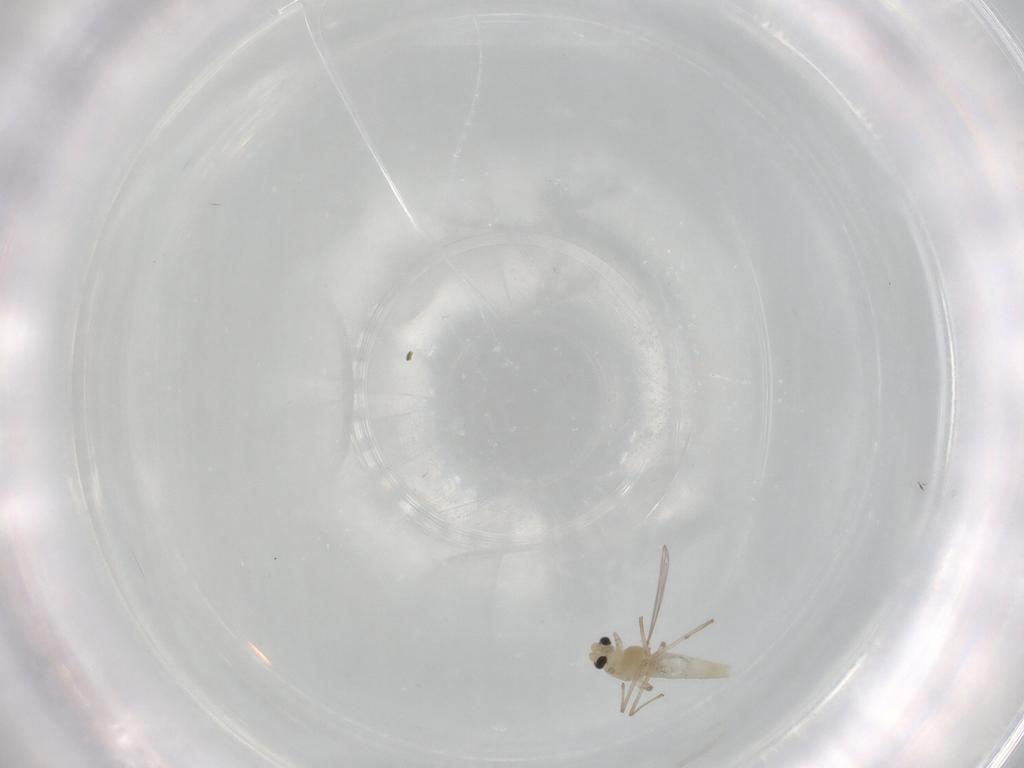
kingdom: Animalia
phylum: Arthropoda
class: Insecta
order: Diptera
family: Chironomidae
